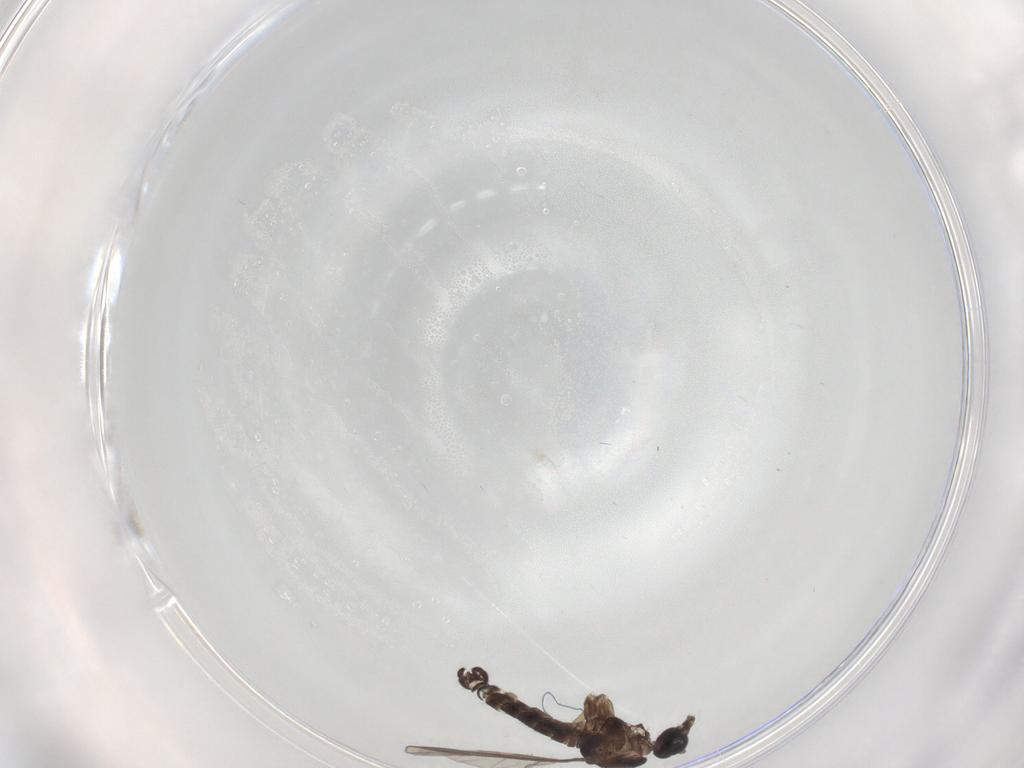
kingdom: Animalia
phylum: Arthropoda
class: Insecta
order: Diptera
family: Sciaridae
